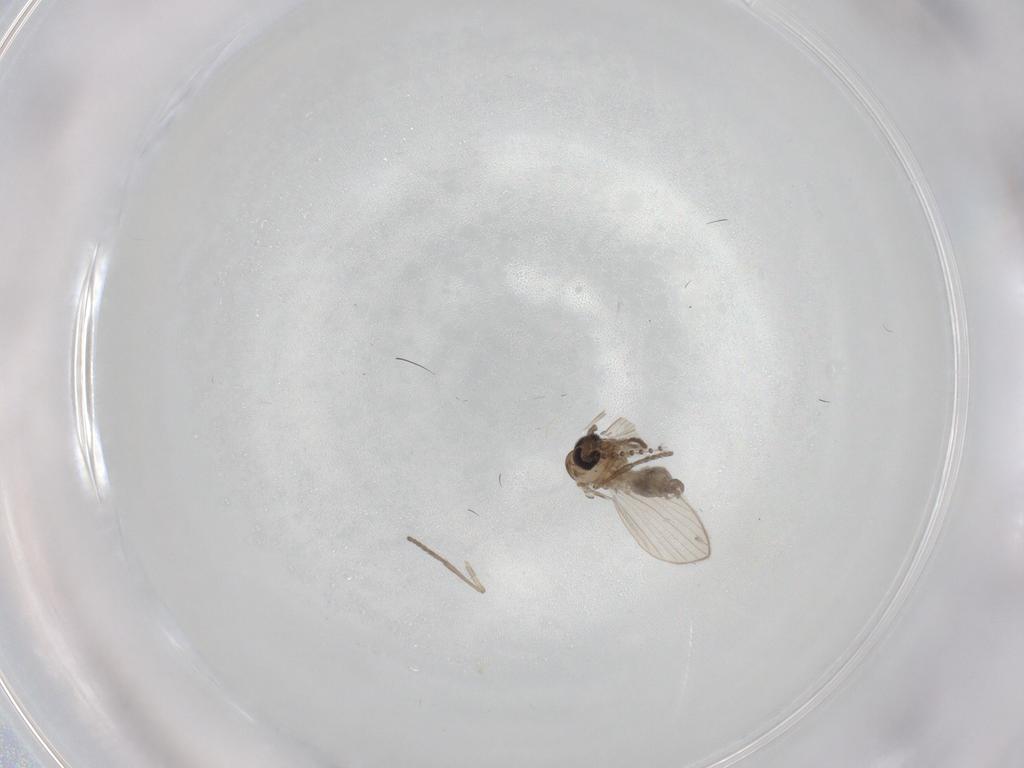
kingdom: Animalia
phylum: Arthropoda
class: Insecta
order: Diptera
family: Psychodidae
